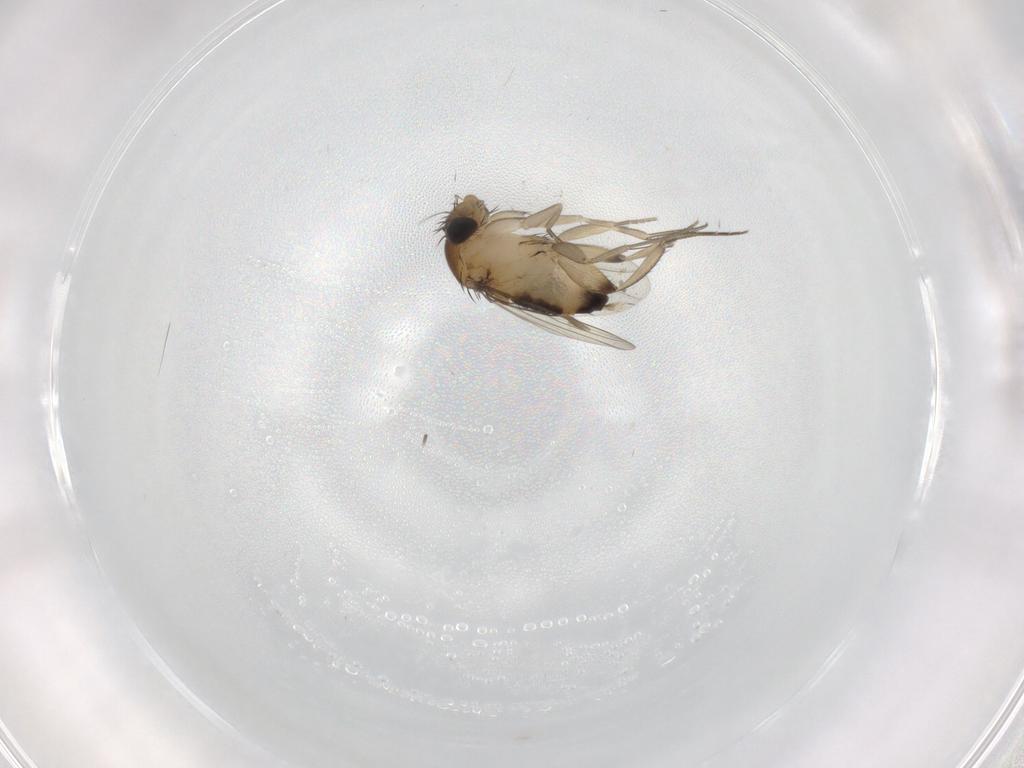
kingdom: Animalia
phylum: Arthropoda
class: Insecta
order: Diptera
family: Phoridae
